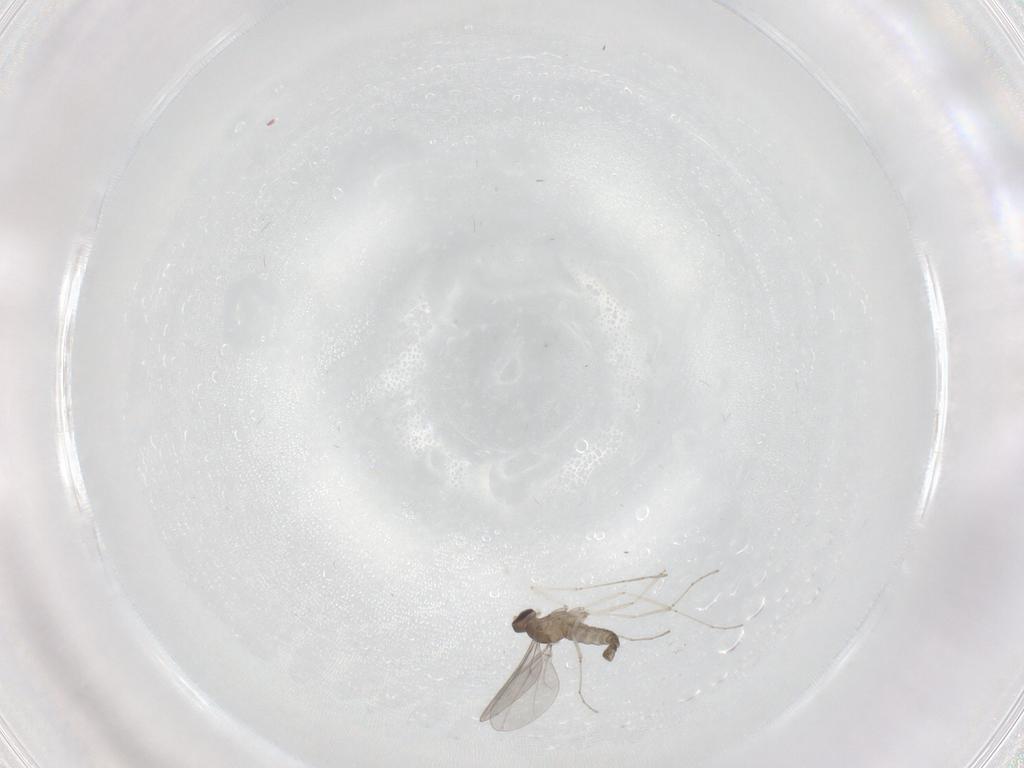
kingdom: Animalia
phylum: Arthropoda
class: Insecta
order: Diptera
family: Cecidomyiidae
